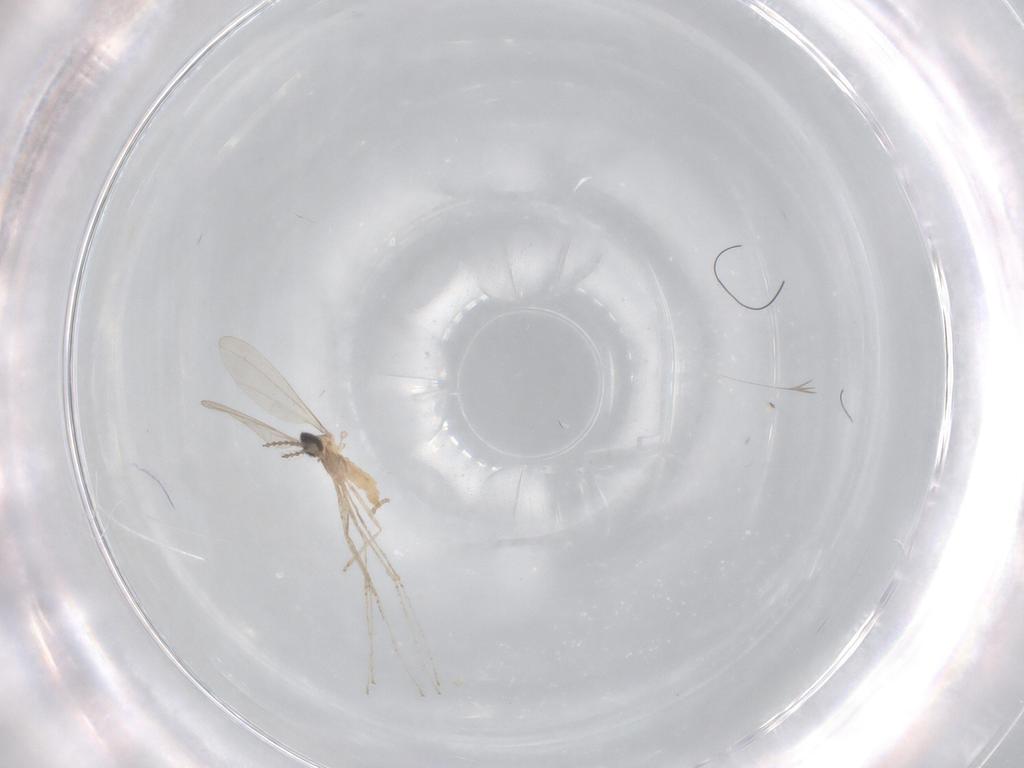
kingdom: Animalia
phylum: Arthropoda
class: Insecta
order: Diptera
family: Cecidomyiidae
